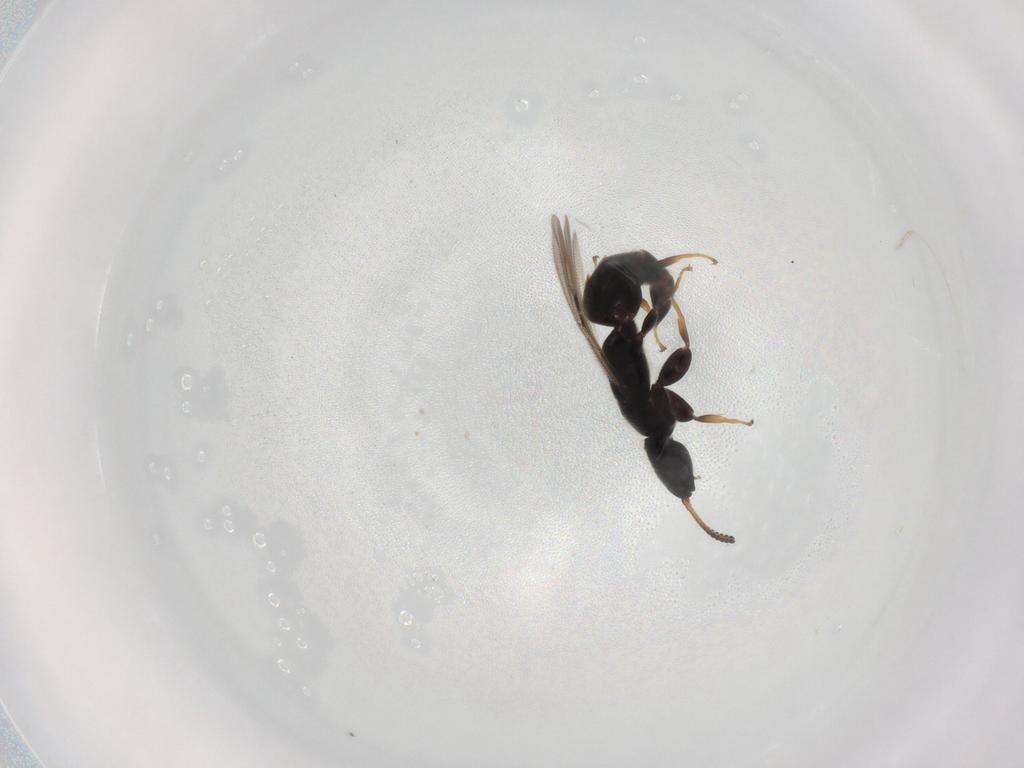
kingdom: Animalia
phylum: Arthropoda
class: Insecta
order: Hymenoptera
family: Bethylidae
